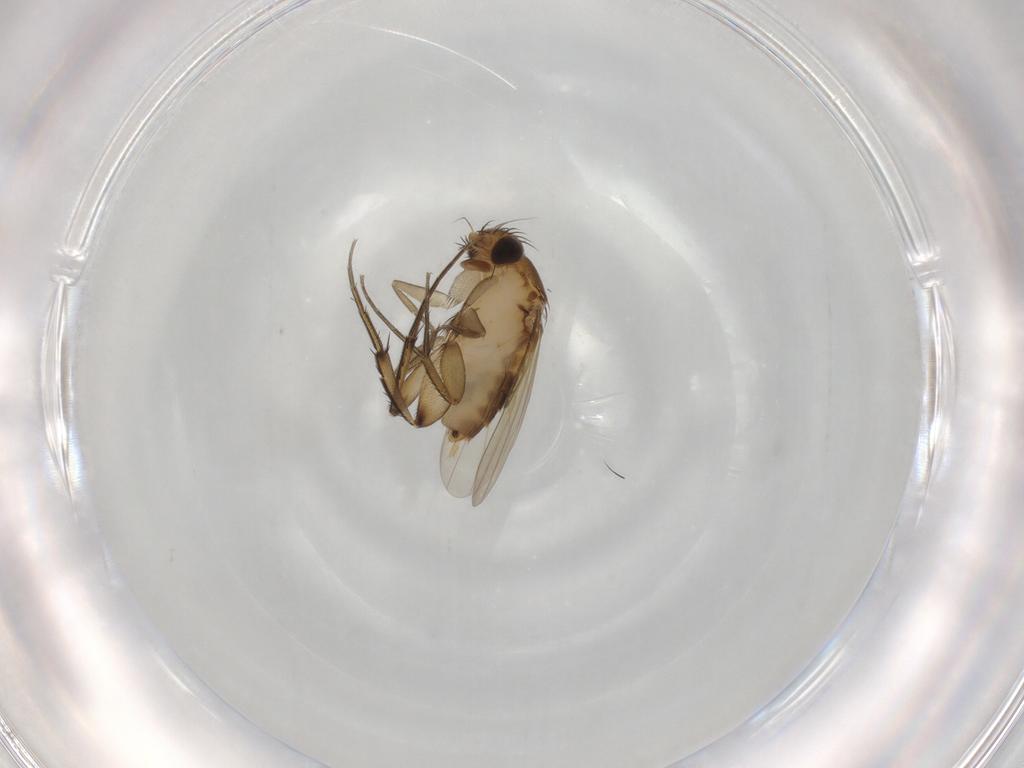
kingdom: Animalia
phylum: Arthropoda
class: Insecta
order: Diptera
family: Phoridae
